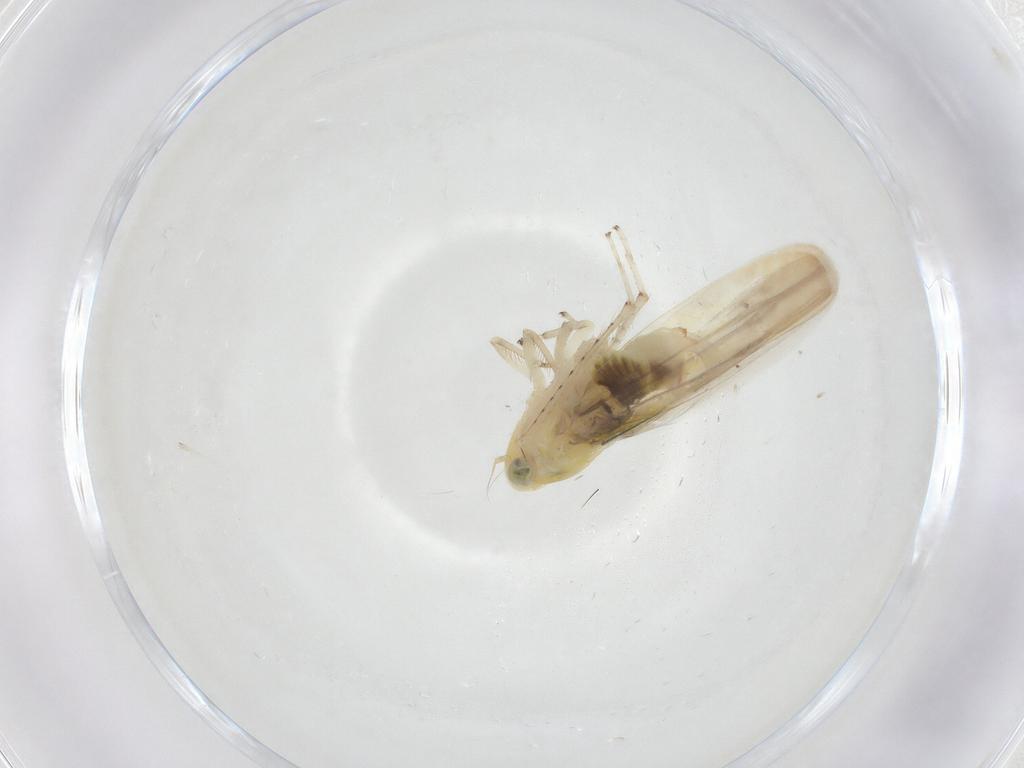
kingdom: Animalia
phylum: Arthropoda
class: Insecta
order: Hemiptera
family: Cicadellidae
